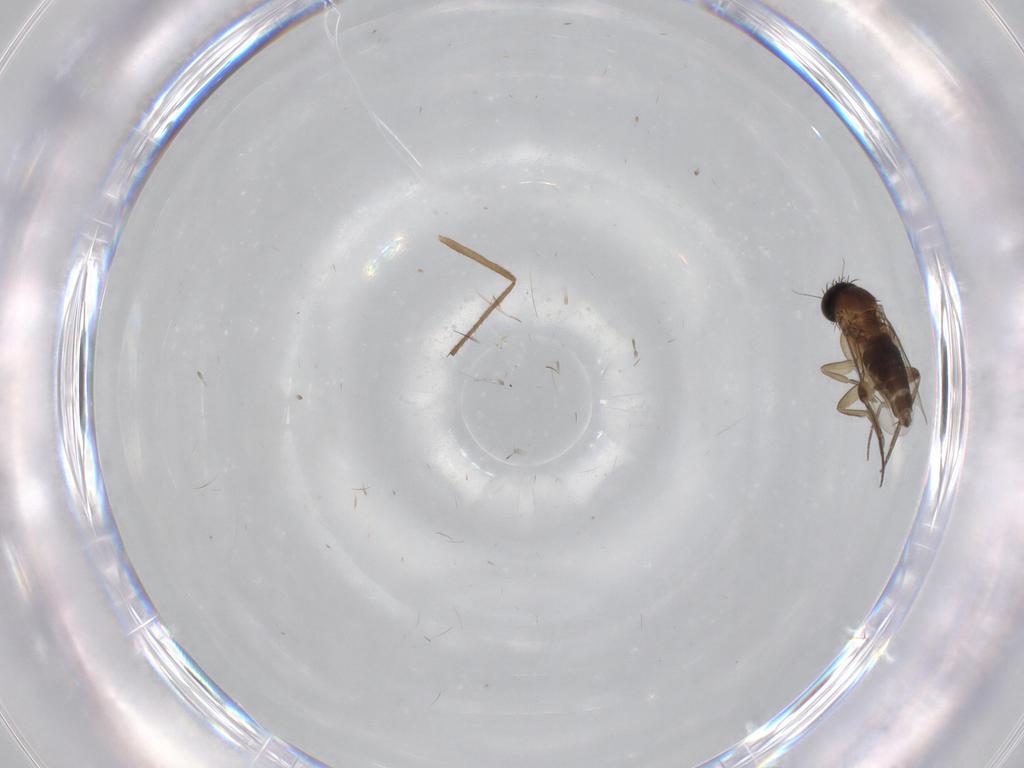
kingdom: Animalia
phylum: Arthropoda
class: Insecta
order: Diptera
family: Phoridae
